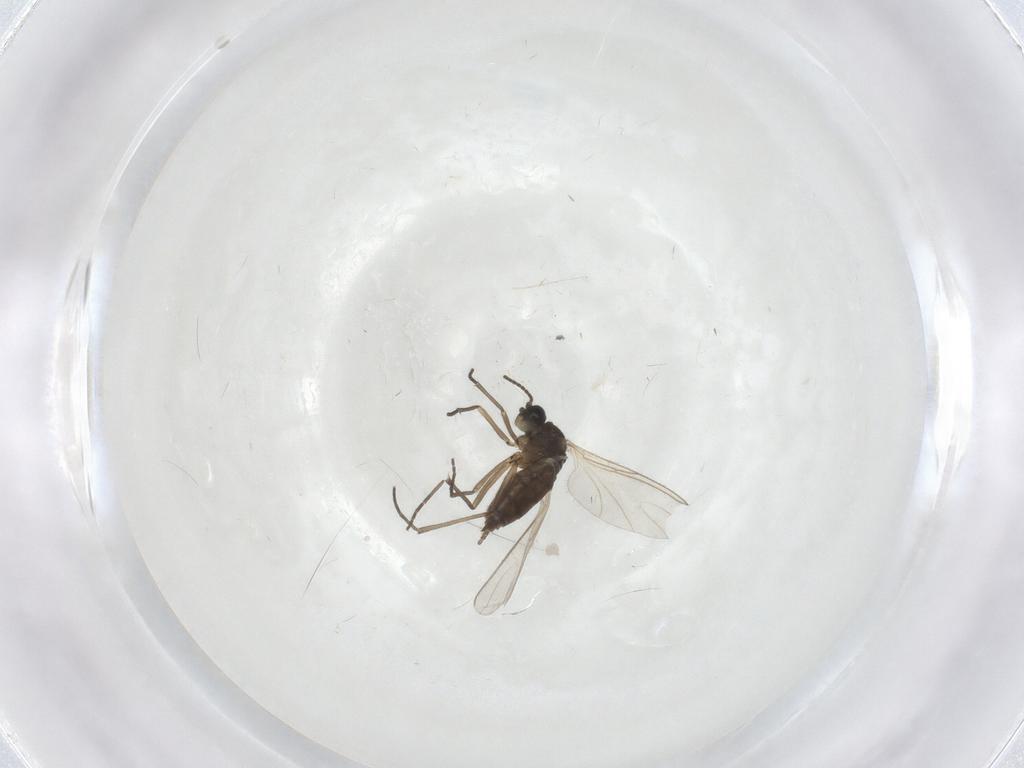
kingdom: Animalia
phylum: Arthropoda
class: Insecta
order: Diptera
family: Sciaridae
